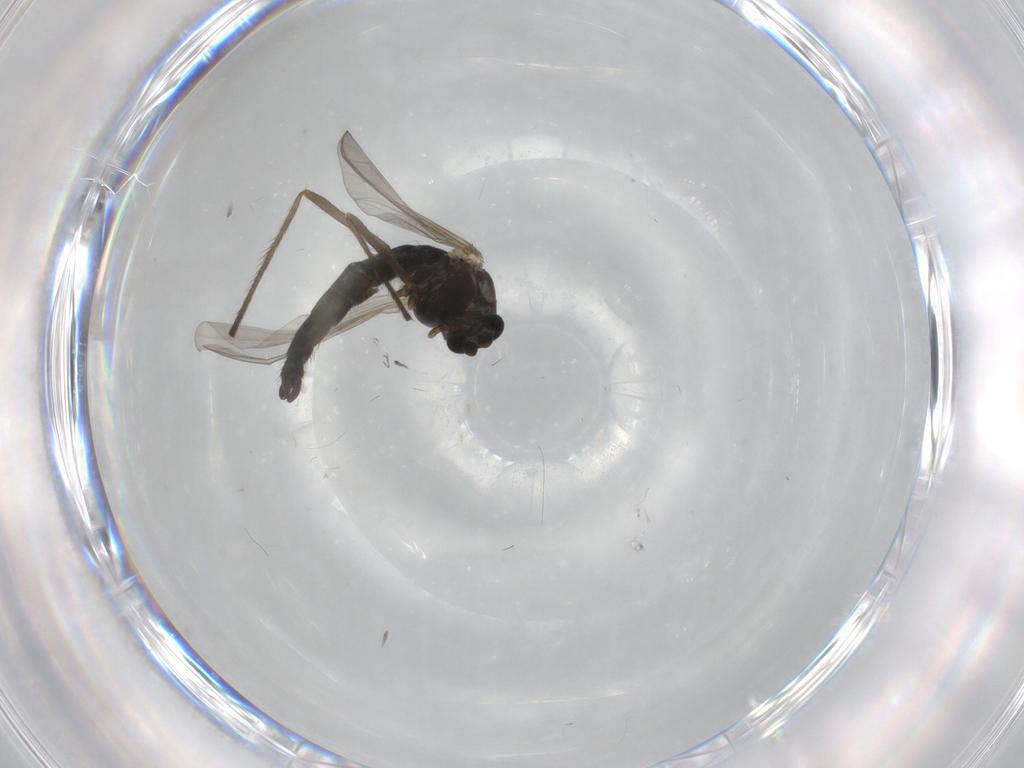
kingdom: Animalia
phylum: Arthropoda
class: Insecta
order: Diptera
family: Chironomidae
